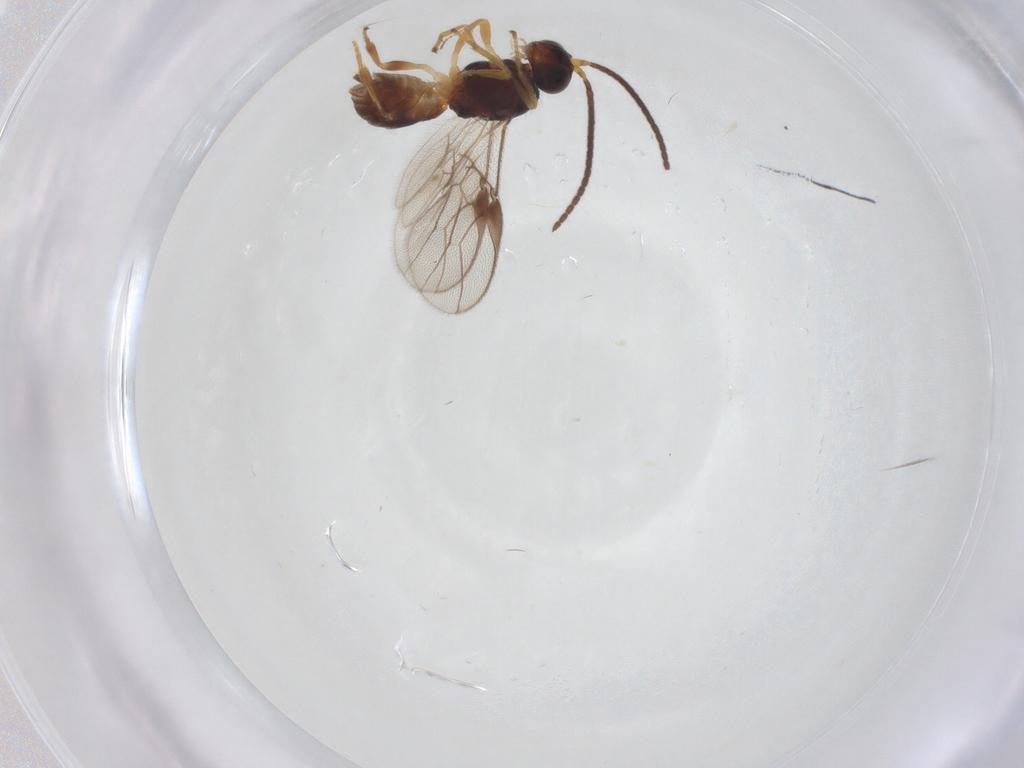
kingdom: Animalia
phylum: Arthropoda
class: Insecta
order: Hymenoptera
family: Braconidae
